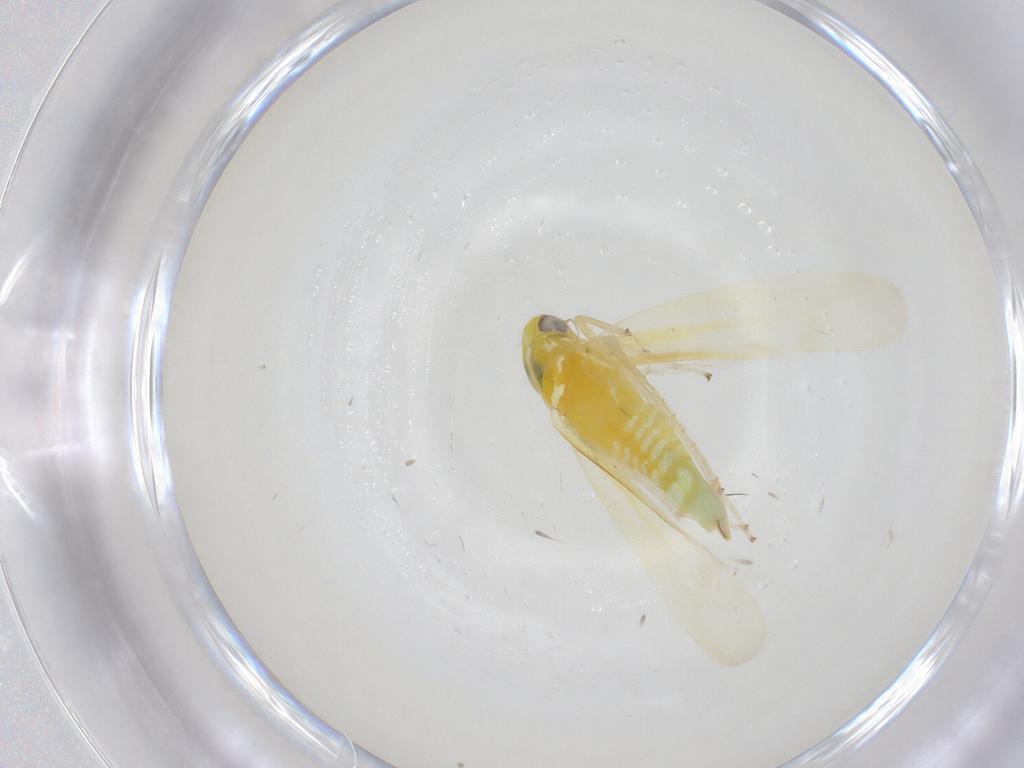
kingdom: Animalia
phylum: Arthropoda
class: Insecta
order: Hemiptera
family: Cicadellidae
